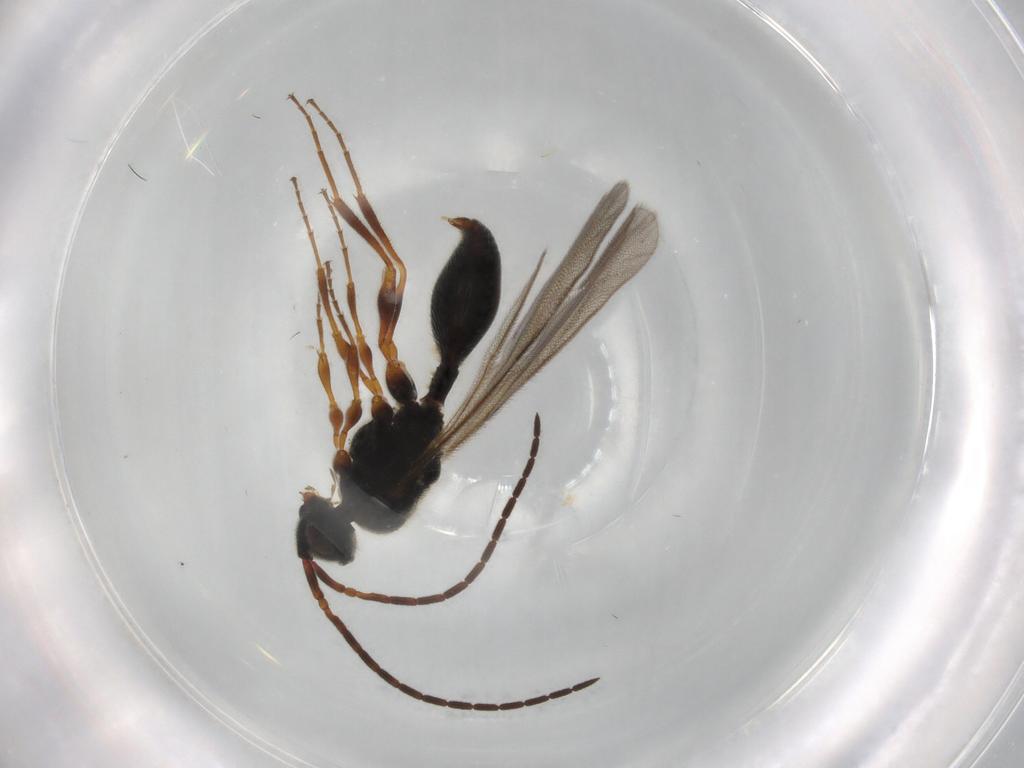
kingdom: Animalia
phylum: Arthropoda
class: Insecta
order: Hymenoptera
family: Diapriidae
